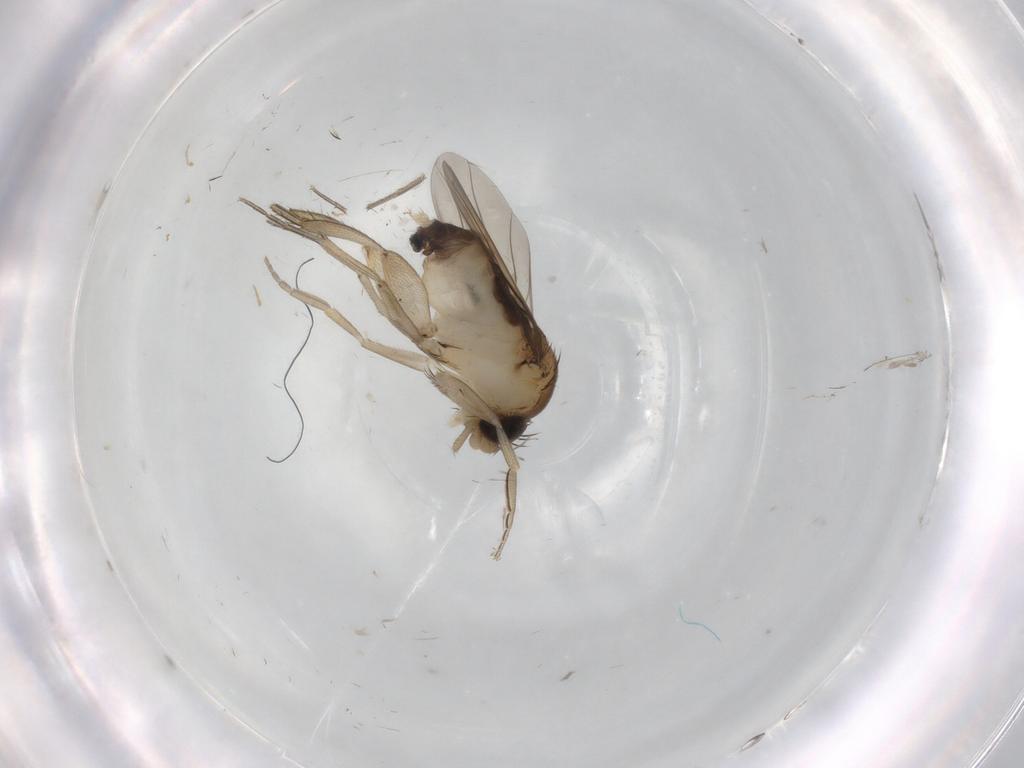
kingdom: Animalia
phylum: Arthropoda
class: Insecta
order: Diptera
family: Phoridae
